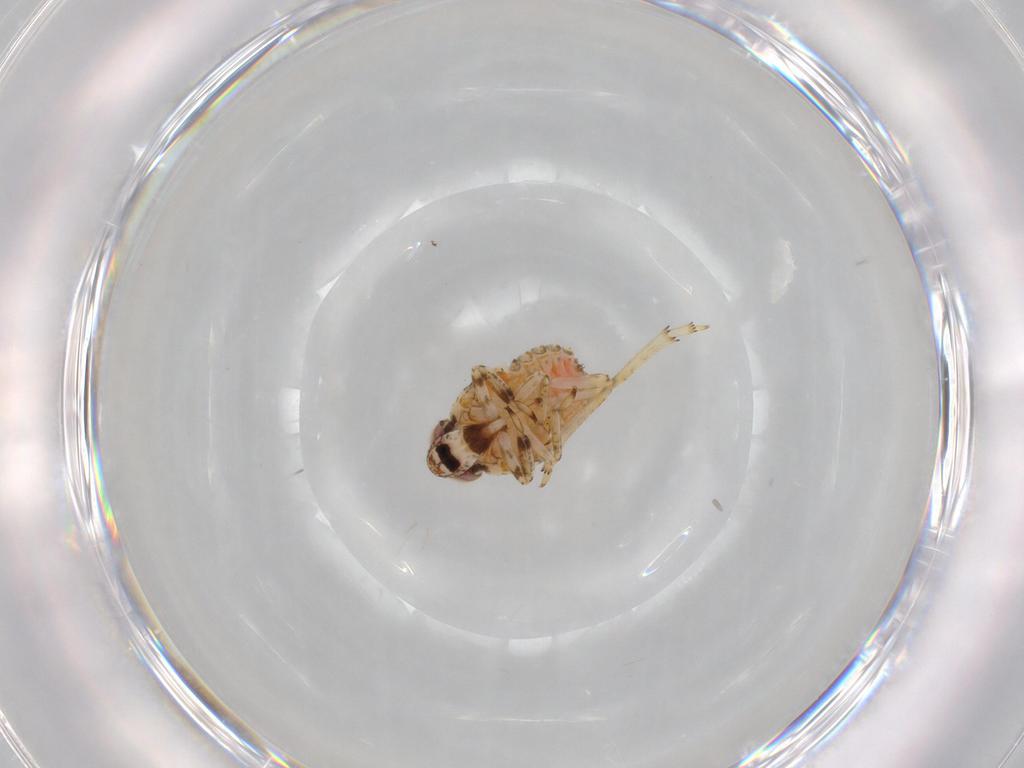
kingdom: Animalia
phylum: Arthropoda
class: Insecta
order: Hemiptera
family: Issidae
